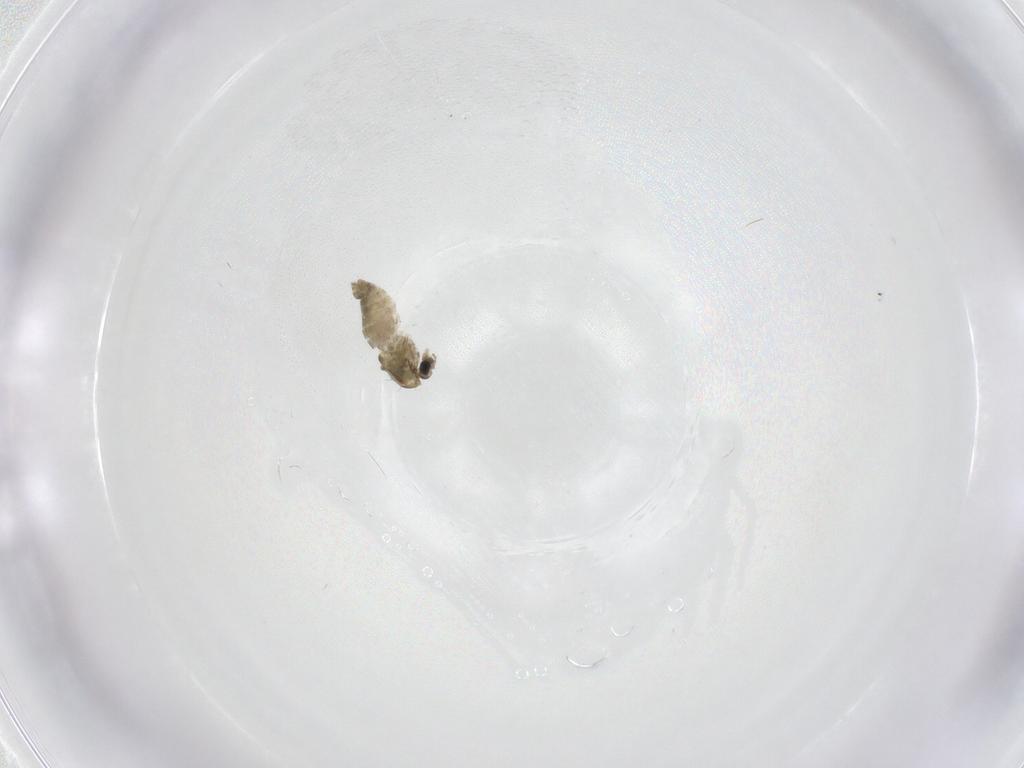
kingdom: Animalia
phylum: Arthropoda
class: Insecta
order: Diptera
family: Chironomidae
